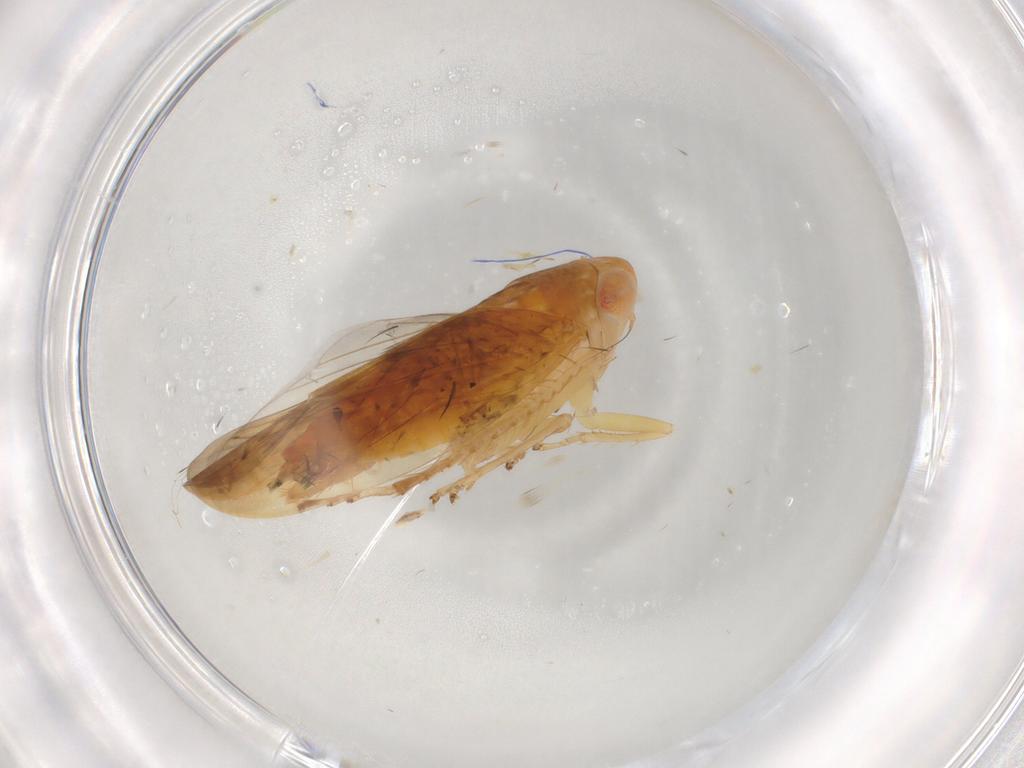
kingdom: Animalia
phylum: Arthropoda
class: Insecta
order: Hemiptera
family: Cicadellidae
